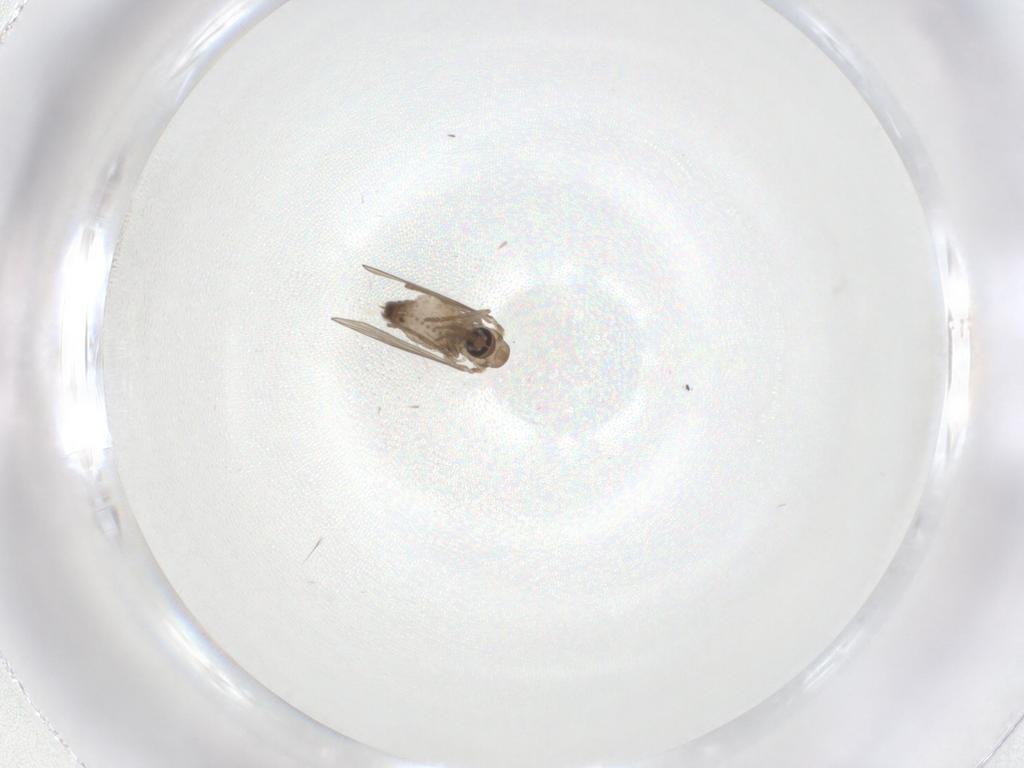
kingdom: Animalia
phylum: Arthropoda
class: Insecta
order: Diptera
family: Psychodidae
